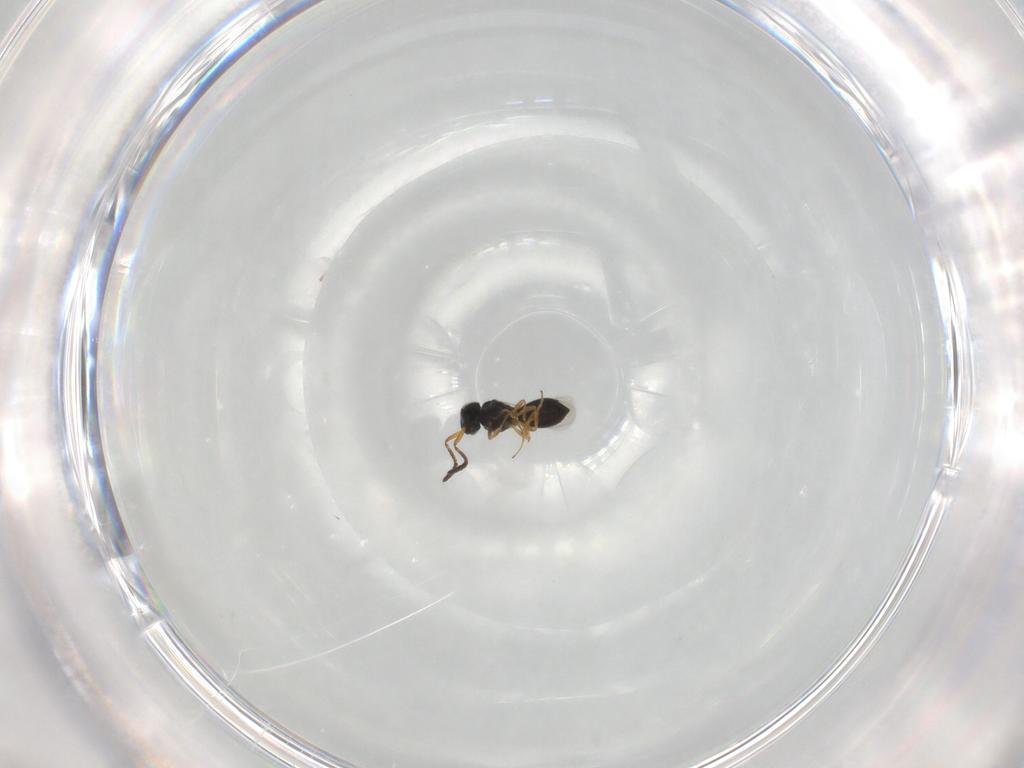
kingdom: Animalia
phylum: Arthropoda
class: Insecta
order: Hymenoptera
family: Scelionidae
